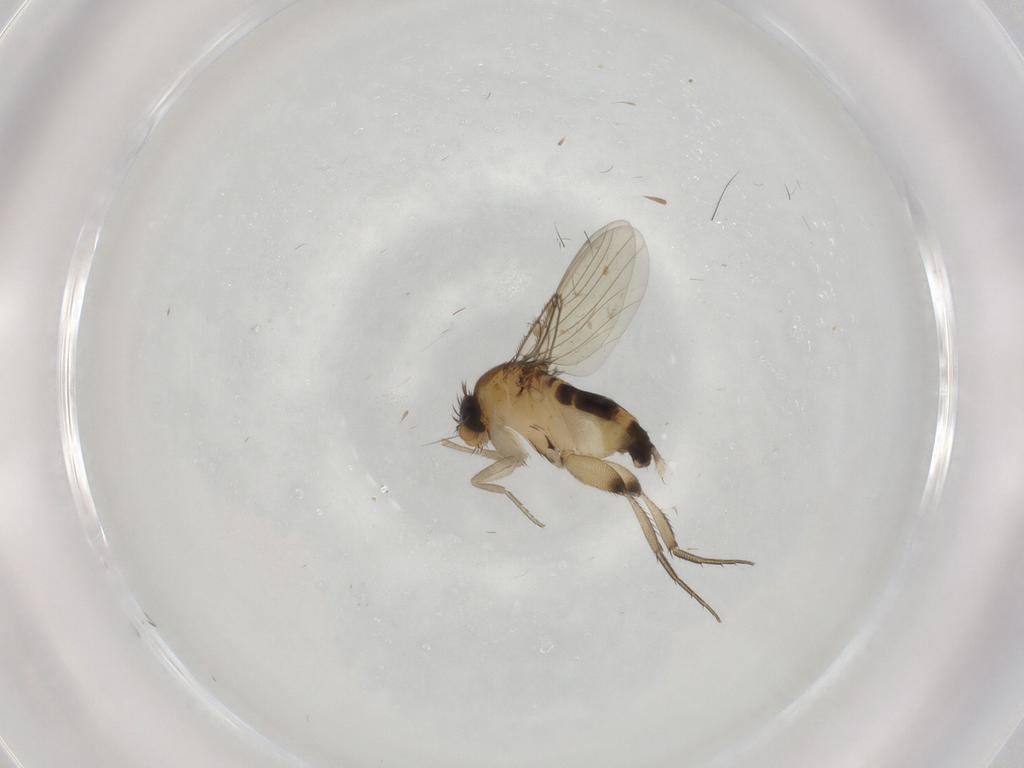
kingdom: Animalia
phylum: Arthropoda
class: Insecta
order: Diptera
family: Phoridae
